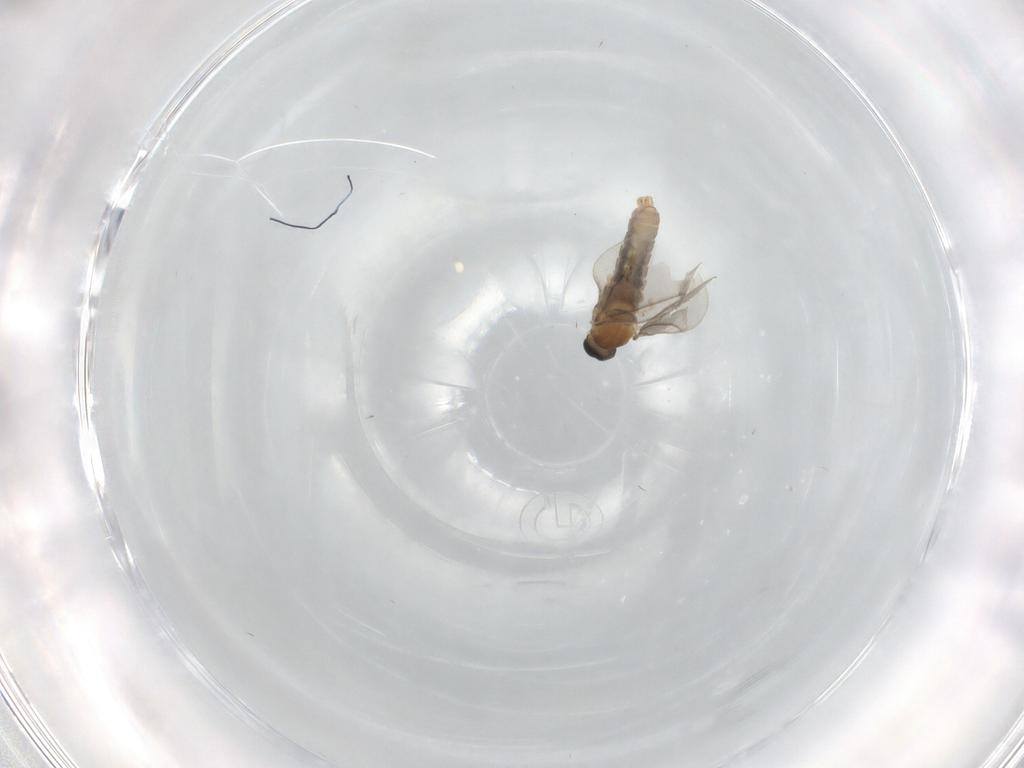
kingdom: Animalia
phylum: Arthropoda
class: Insecta
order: Diptera
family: Cecidomyiidae
